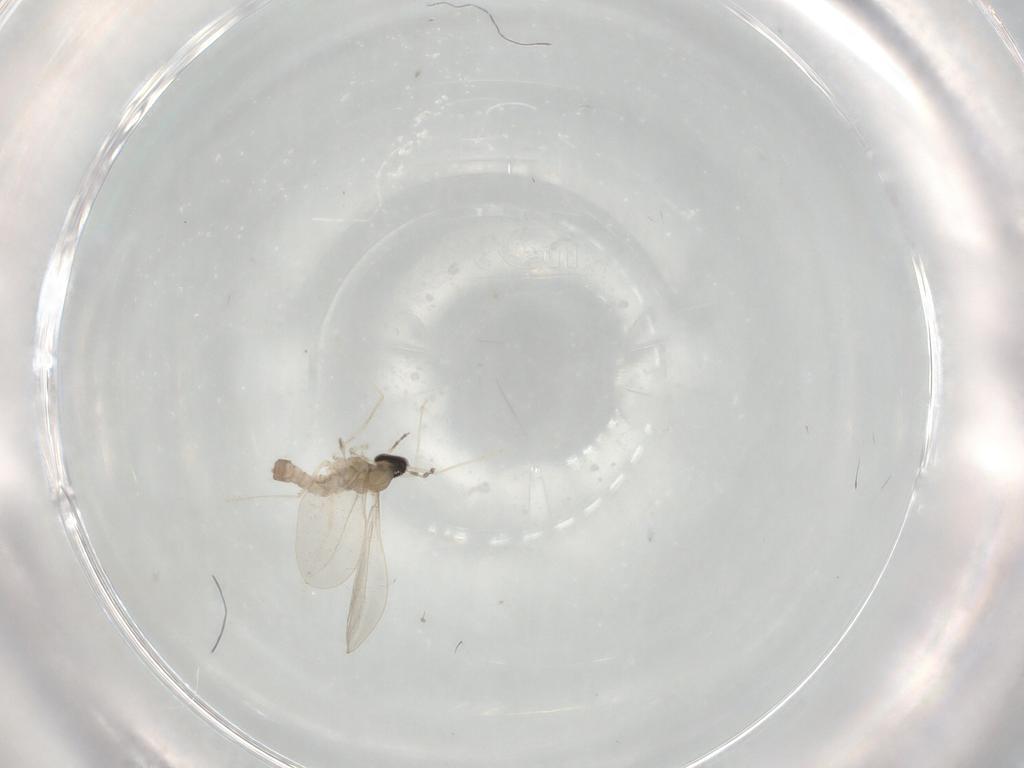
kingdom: Animalia
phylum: Arthropoda
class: Insecta
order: Diptera
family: Cecidomyiidae
